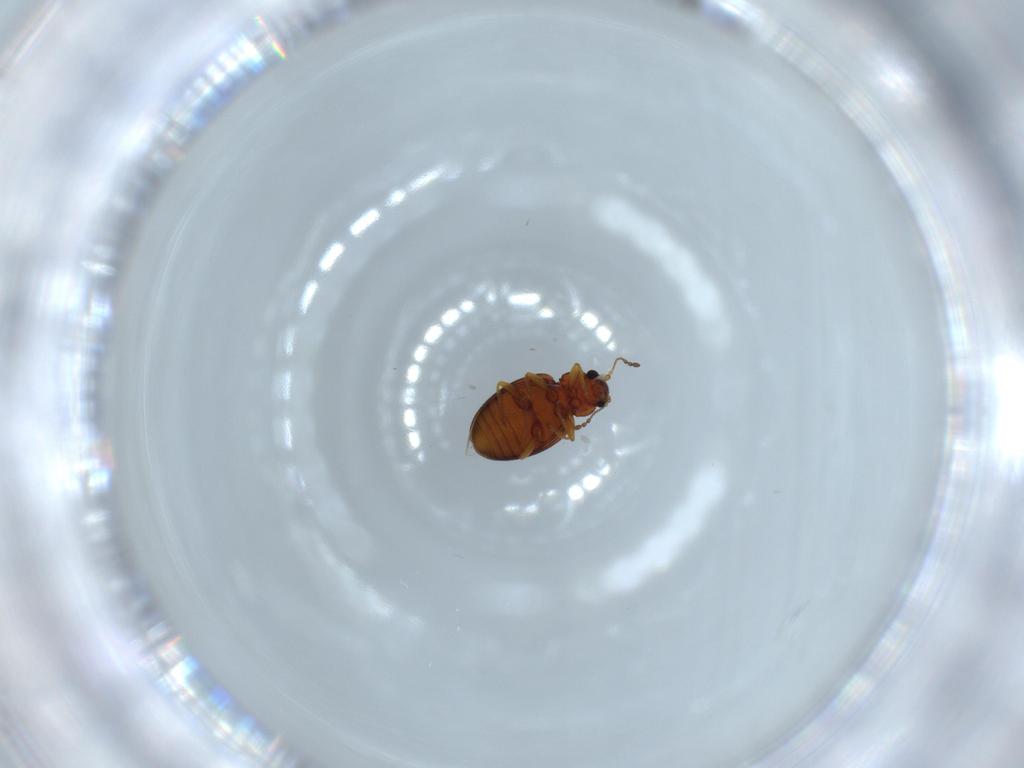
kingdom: Animalia
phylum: Arthropoda
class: Insecta
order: Coleoptera
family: Latridiidae
